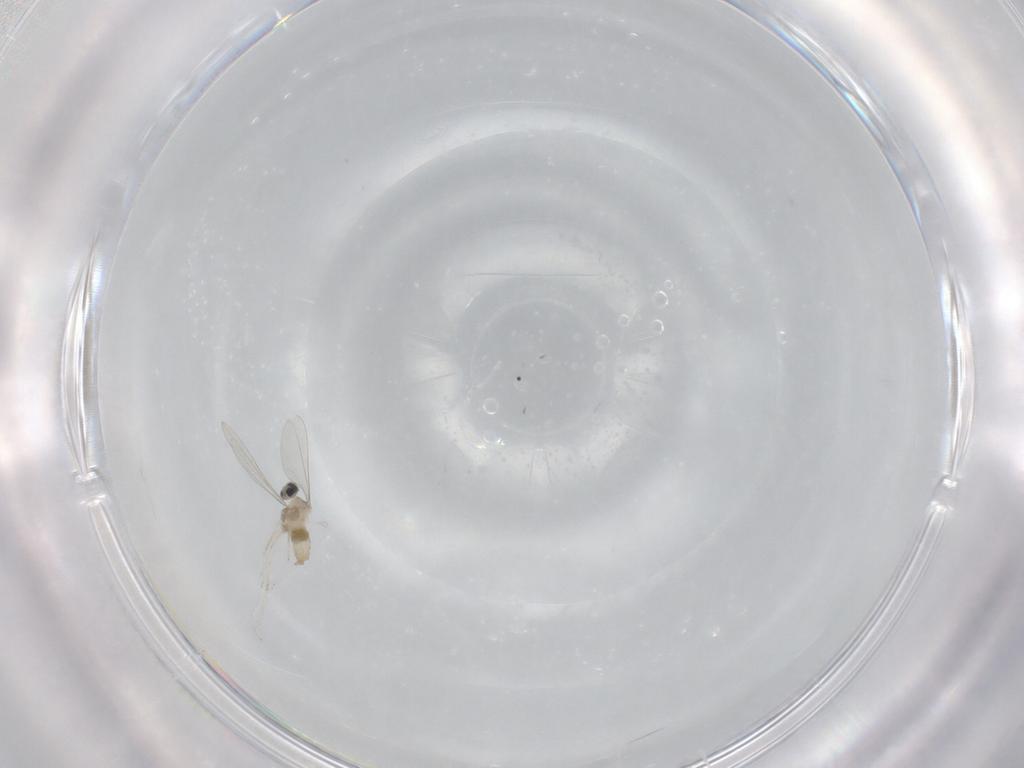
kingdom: Animalia
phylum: Arthropoda
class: Insecta
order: Diptera
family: Cecidomyiidae
